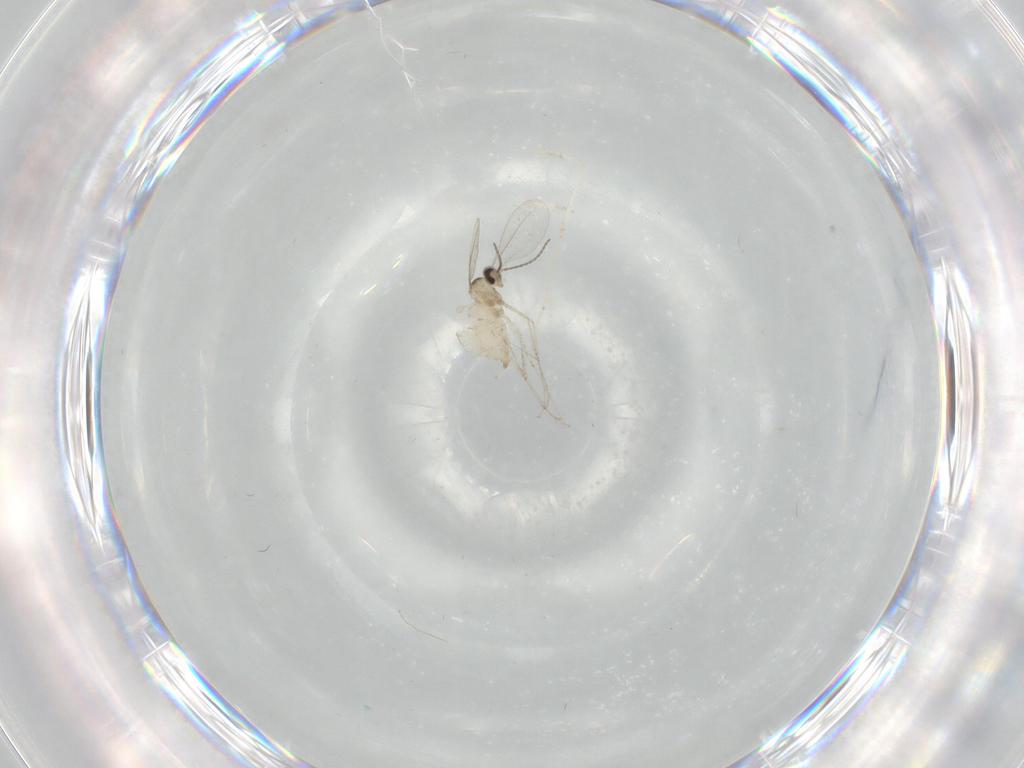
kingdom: Animalia
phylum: Arthropoda
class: Insecta
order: Diptera
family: Cecidomyiidae
